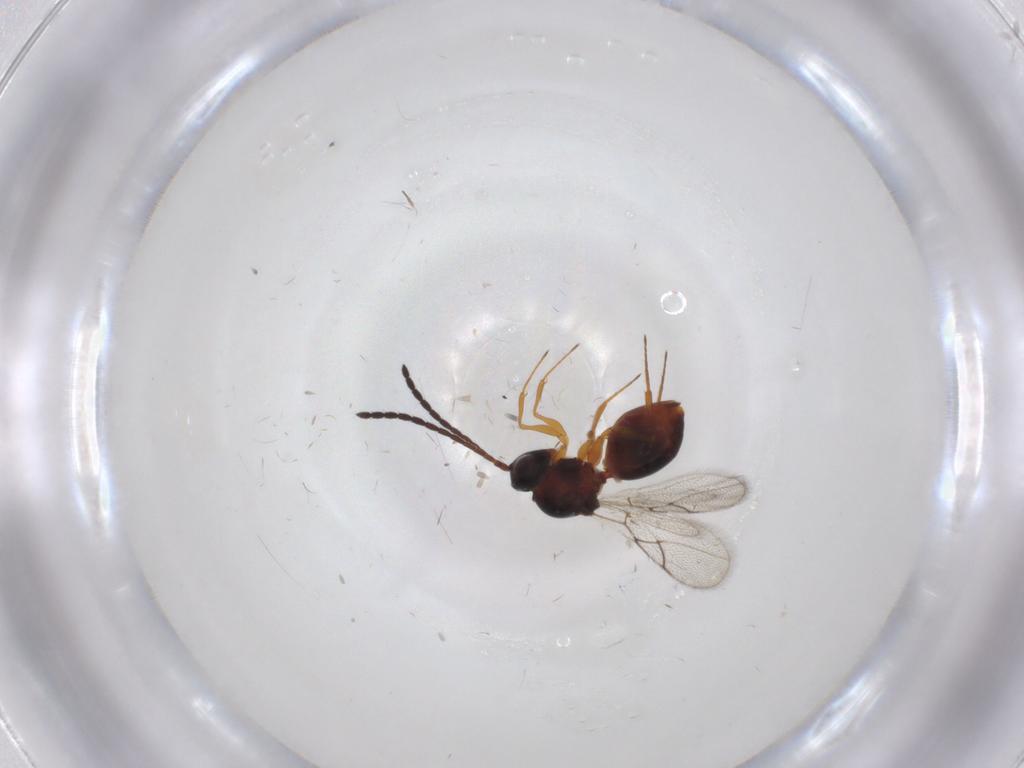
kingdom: Animalia
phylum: Arthropoda
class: Insecta
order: Hymenoptera
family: Figitidae
